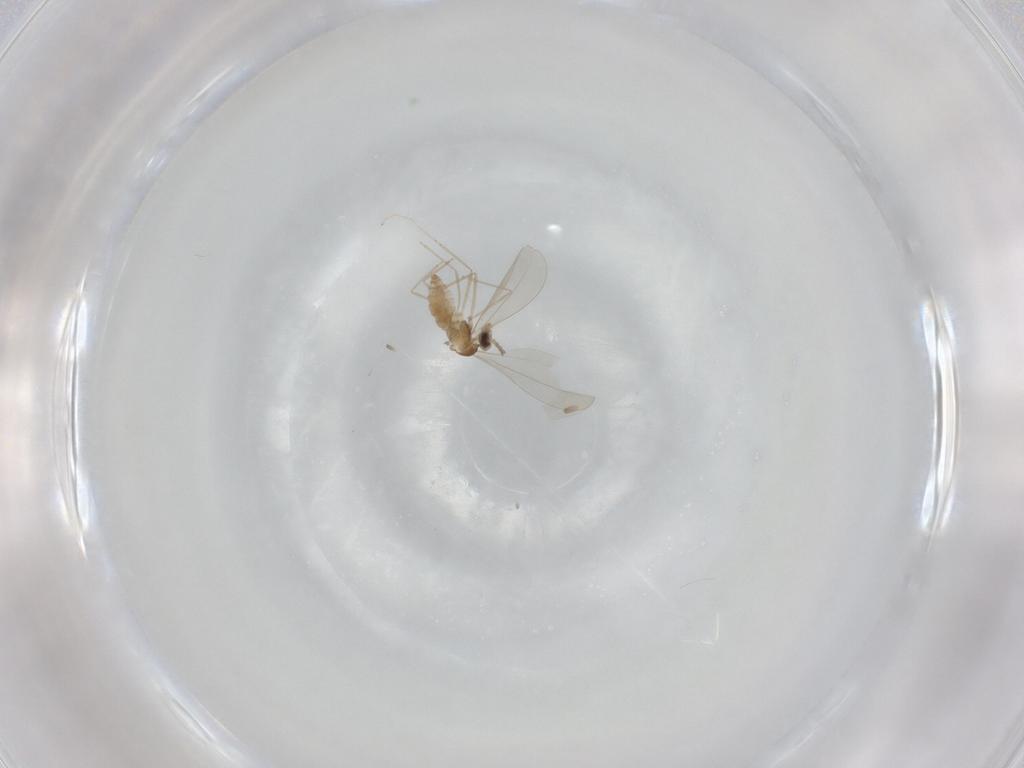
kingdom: Animalia
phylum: Arthropoda
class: Insecta
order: Diptera
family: Cecidomyiidae
